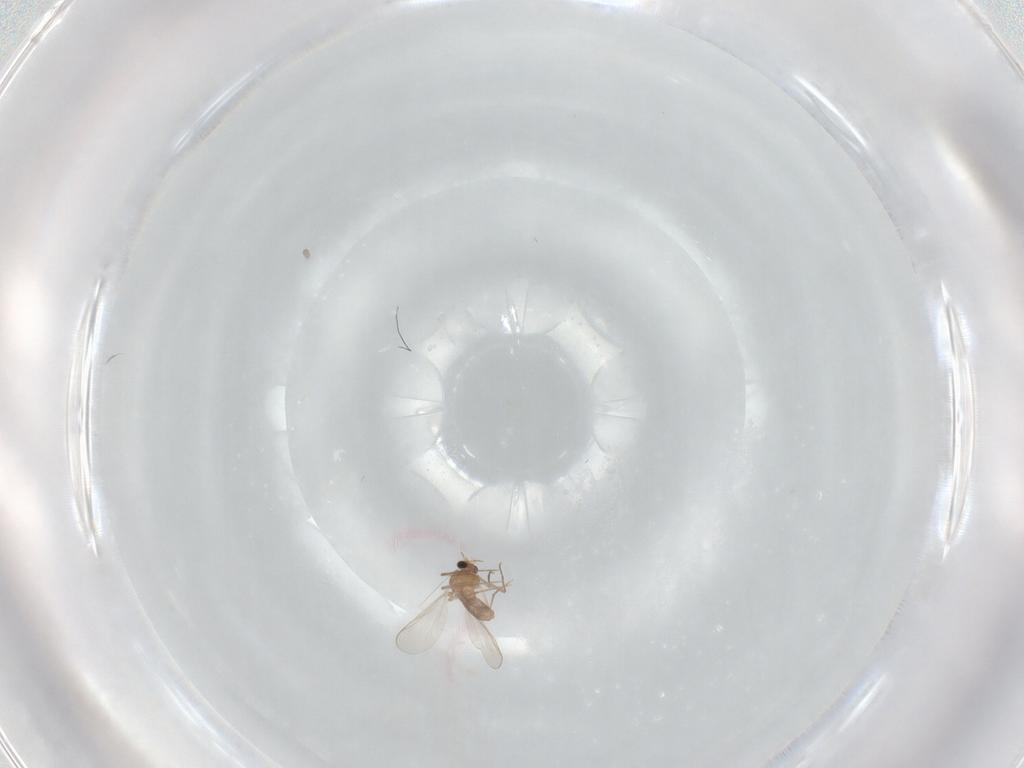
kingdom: Animalia
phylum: Arthropoda
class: Insecta
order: Diptera
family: Chironomidae
